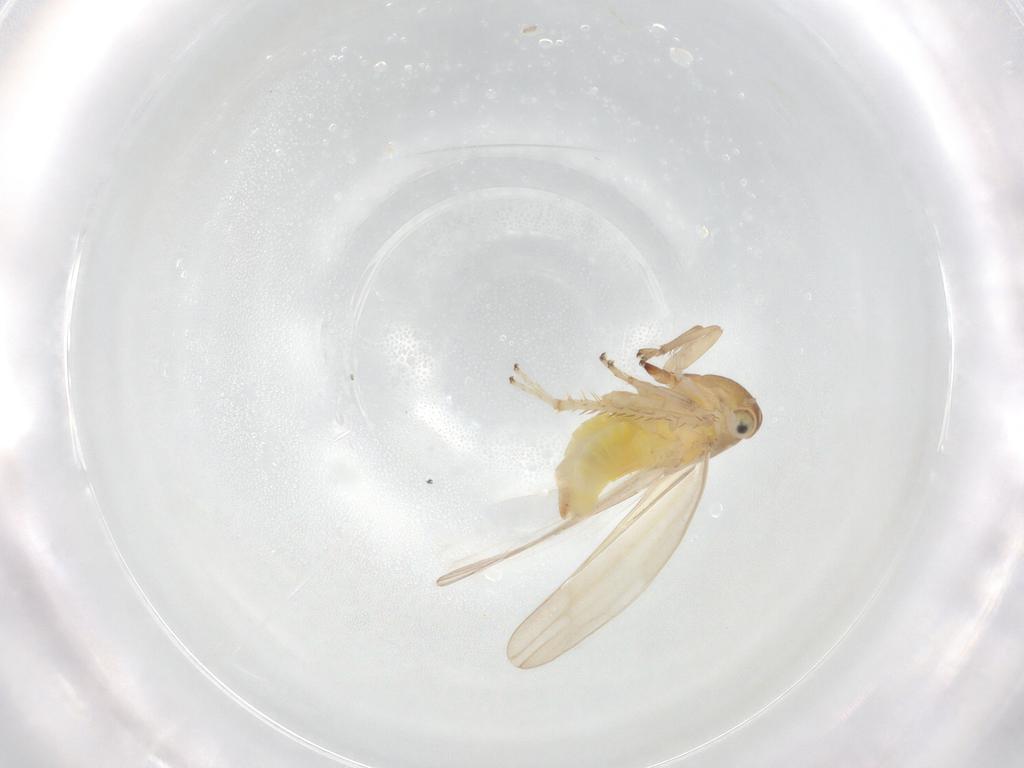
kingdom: Animalia
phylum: Arthropoda
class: Insecta
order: Hemiptera
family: Cicadellidae
